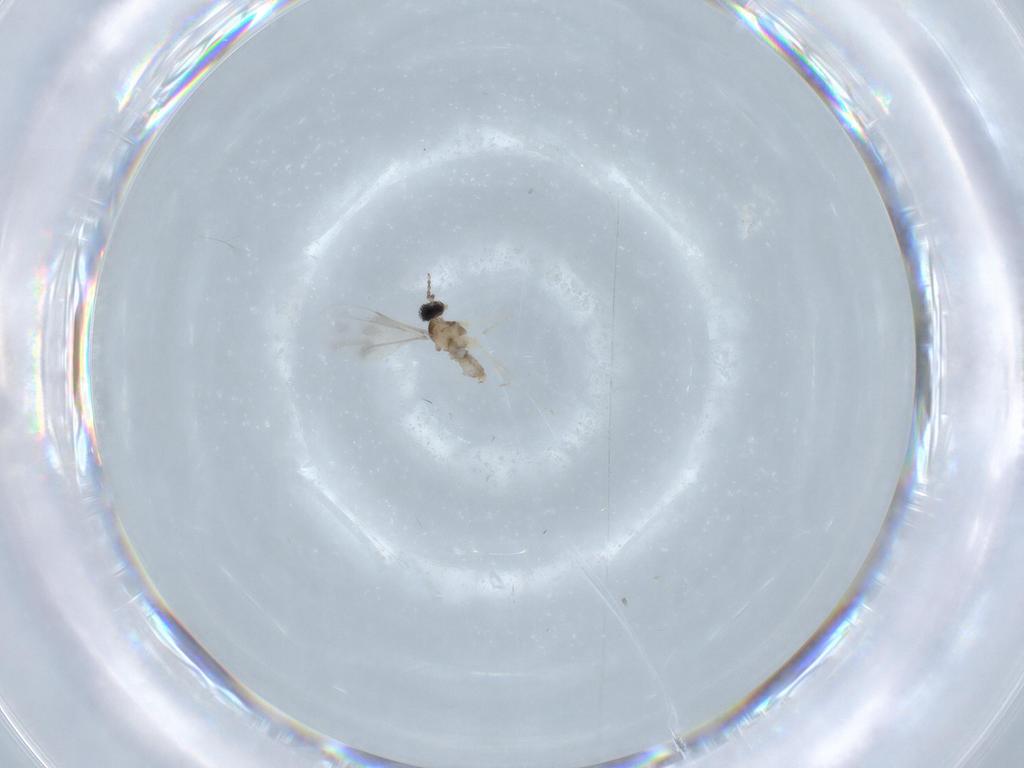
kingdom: Animalia
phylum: Arthropoda
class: Insecta
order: Diptera
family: Cecidomyiidae
